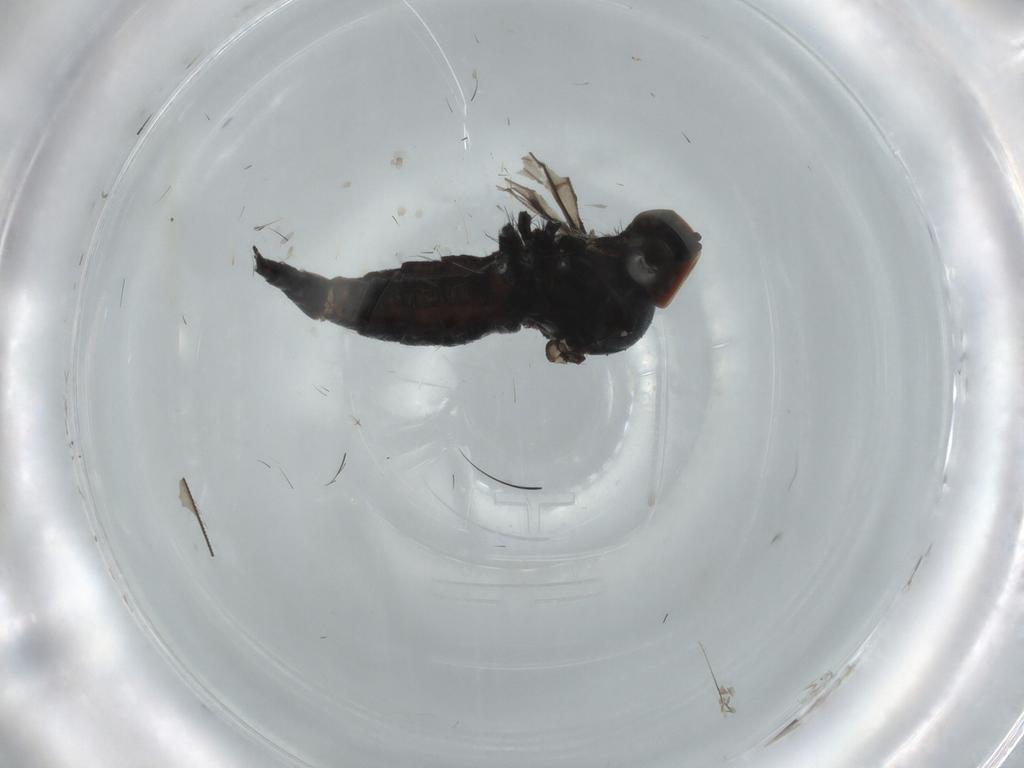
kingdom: Animalia
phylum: Arthropoda
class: Insecta
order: Diptera
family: Hybotidae
